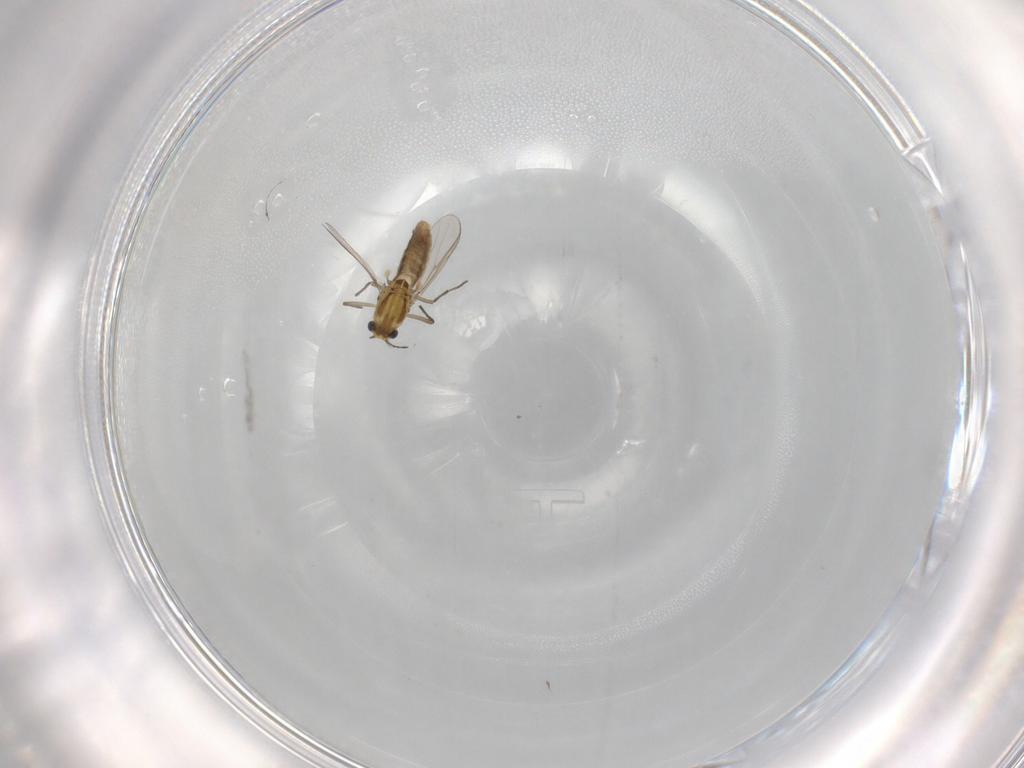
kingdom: Animalia
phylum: Arthropoda
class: Insecta
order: Diptera
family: Chironomidae
